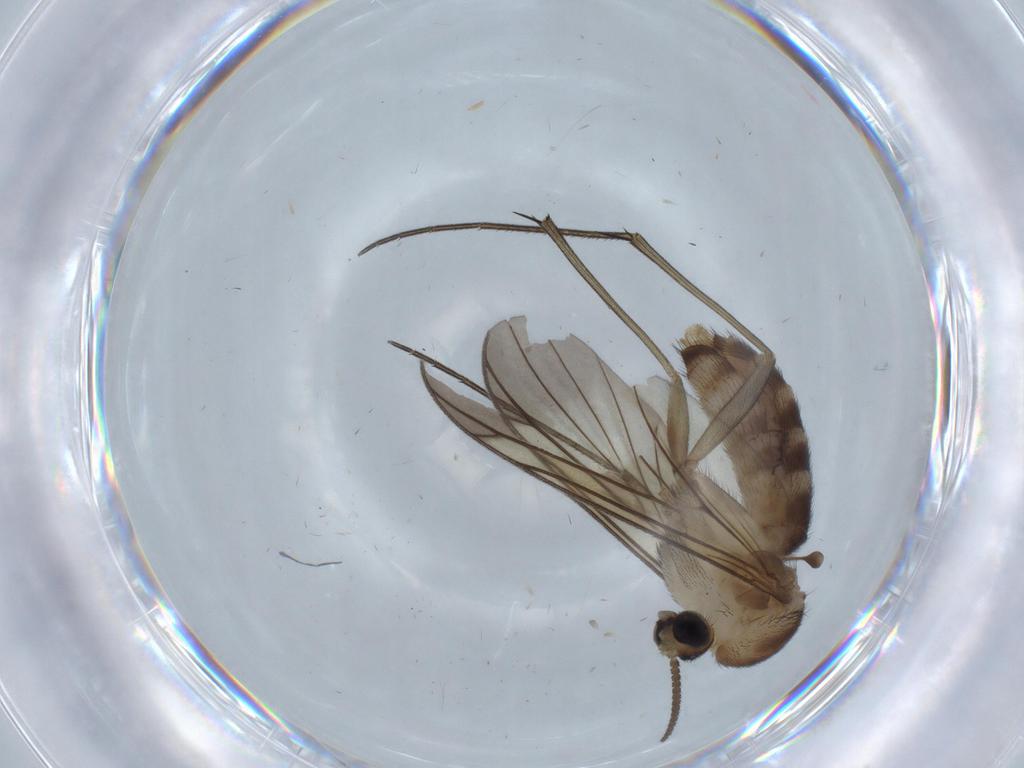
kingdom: Animalia
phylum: Arthropoda
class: Insecta
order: Diptera
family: Mycetophilidae
